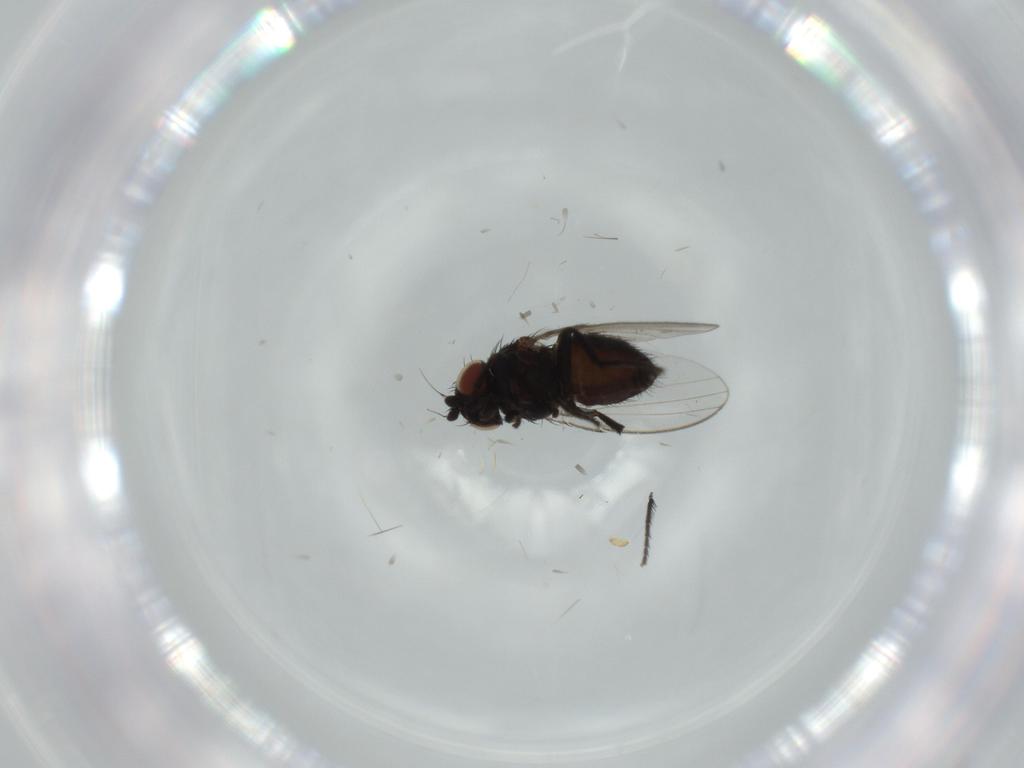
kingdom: Animalia
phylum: Arthropoda
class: Insecta
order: Diptera
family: Milichiidae
